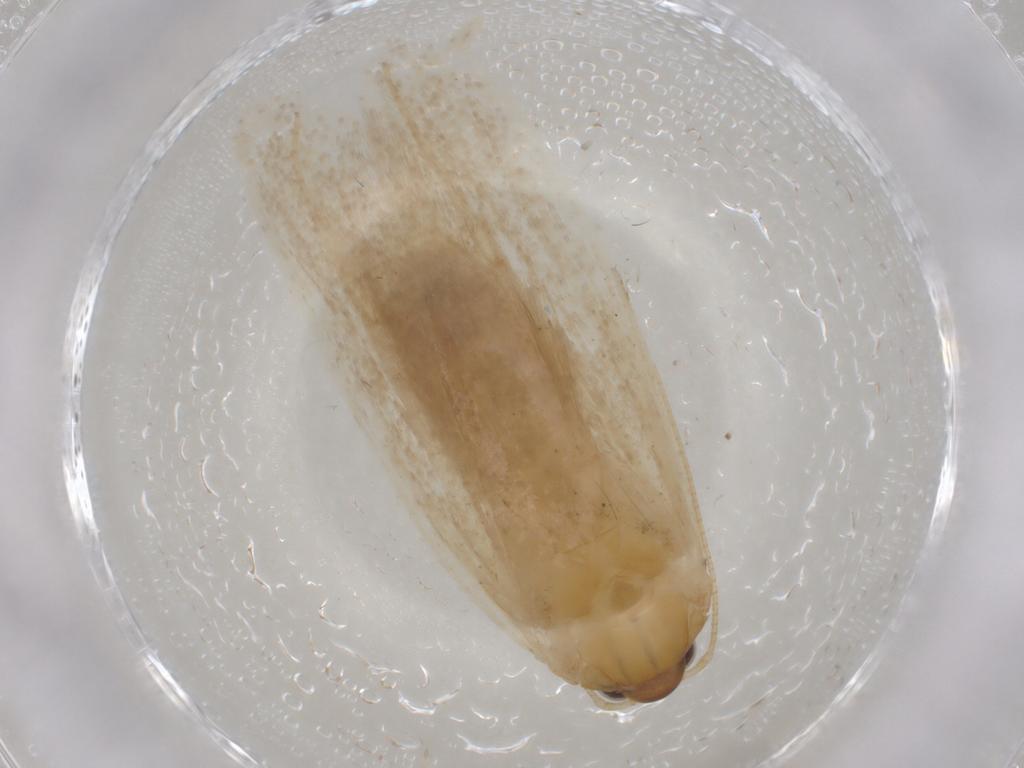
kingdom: Animalia
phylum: Arthropoda
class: Insecta
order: Lepidoptera
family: Autostichidae
